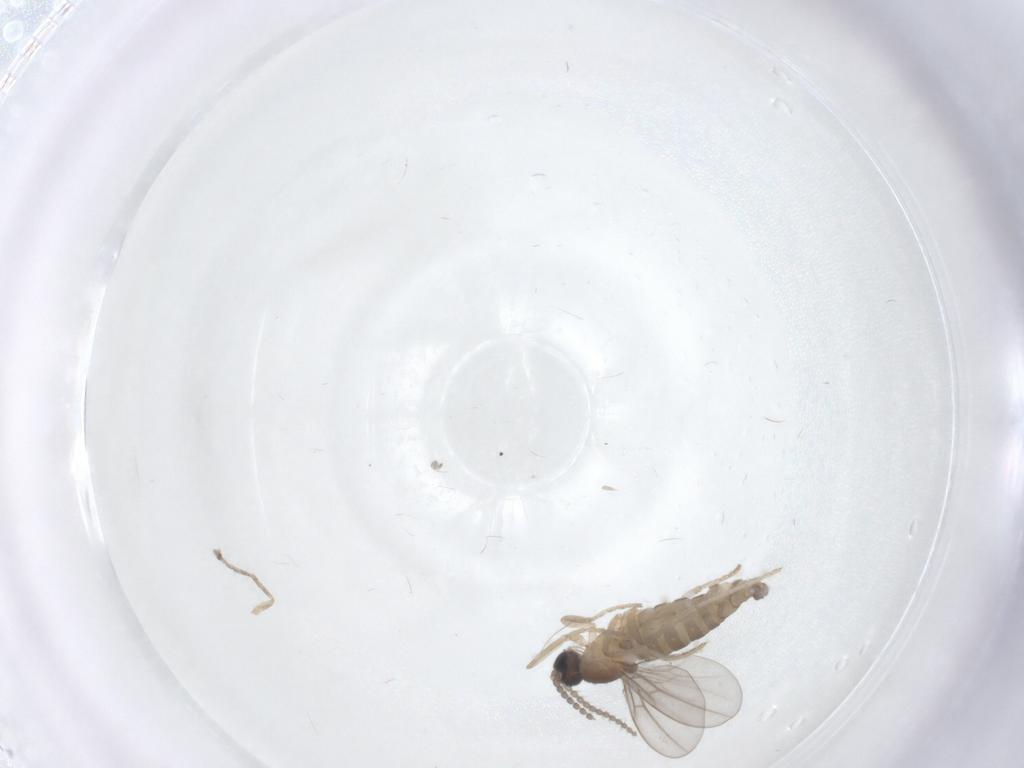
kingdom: Animalia
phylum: Arthropoda
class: Insecta
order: Diptera
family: Cecidomyiidae
